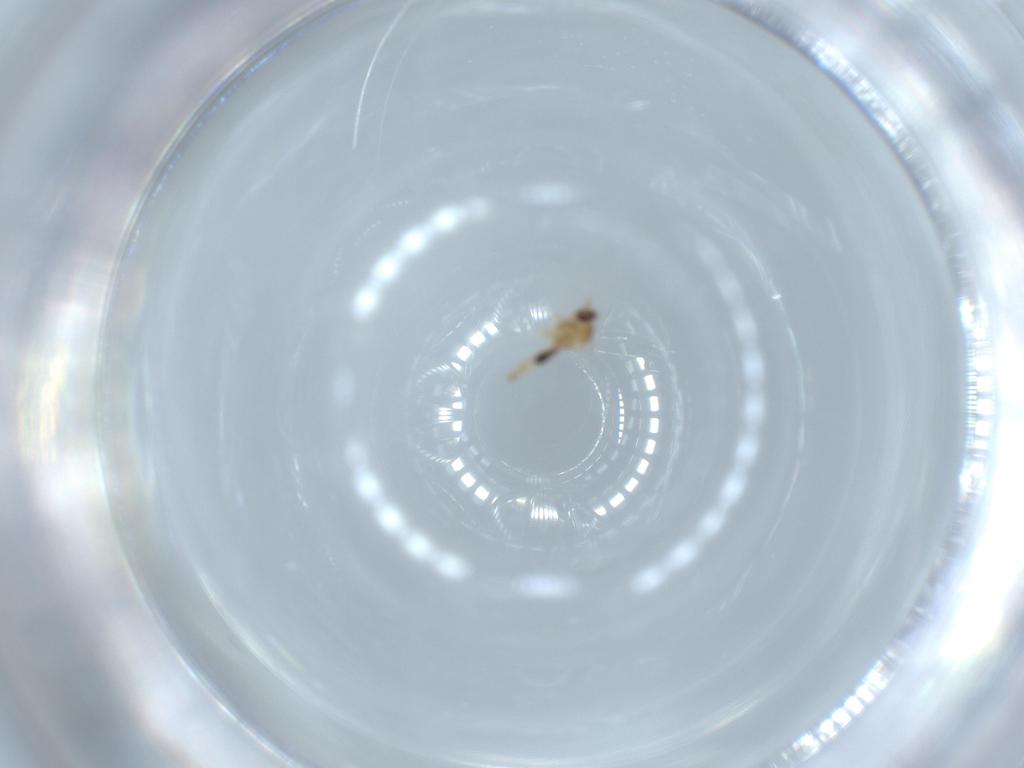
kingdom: Animalia
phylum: Arthropoda
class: Insecta
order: Diptera
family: Cecidomyiidae
